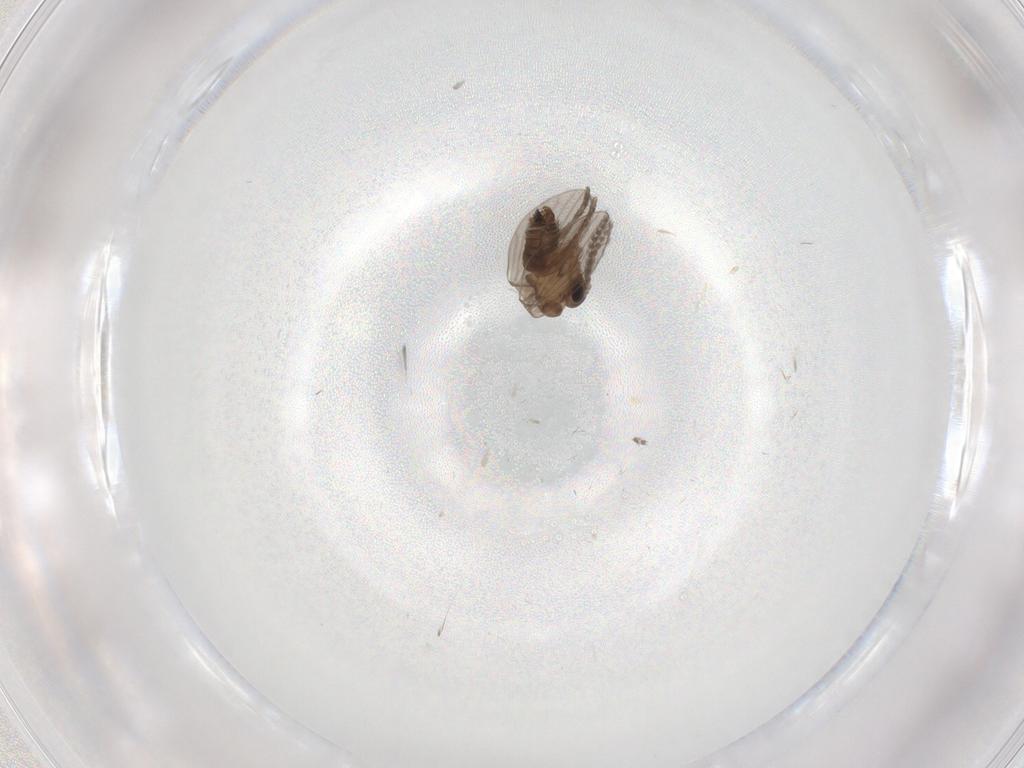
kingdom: Animalia
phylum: Arthropoda
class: Insecta
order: Diptera
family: Psychodidae
